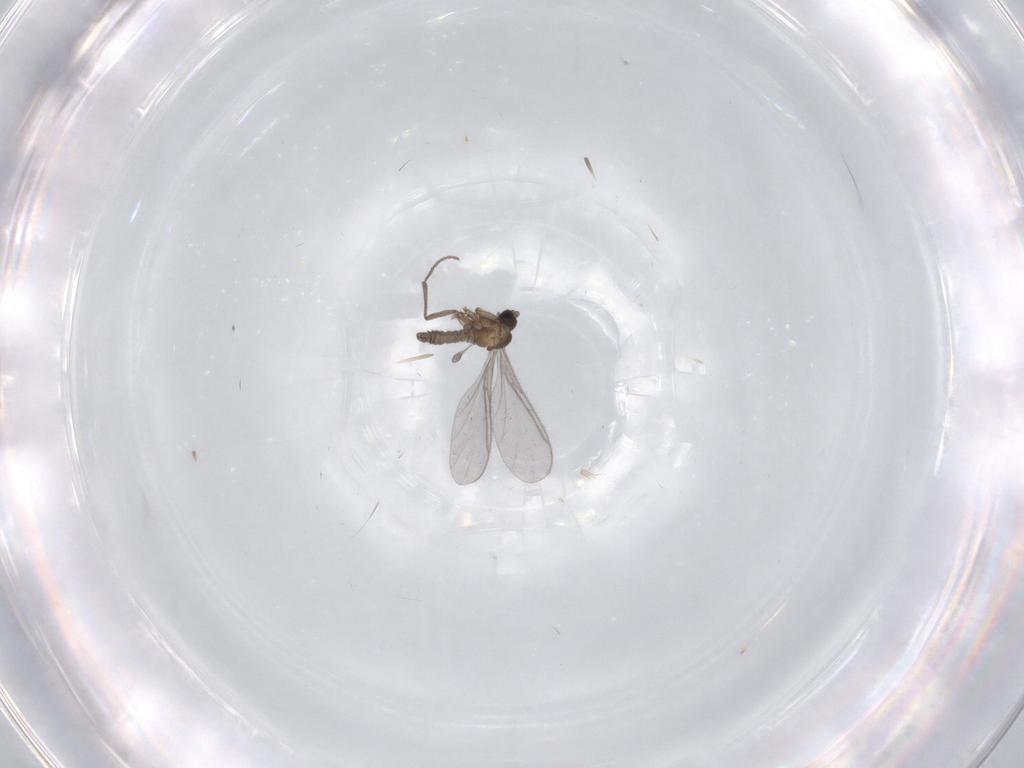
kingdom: Animalia
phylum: Arthropoda
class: Insecta
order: Diptera
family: Sciaridae
